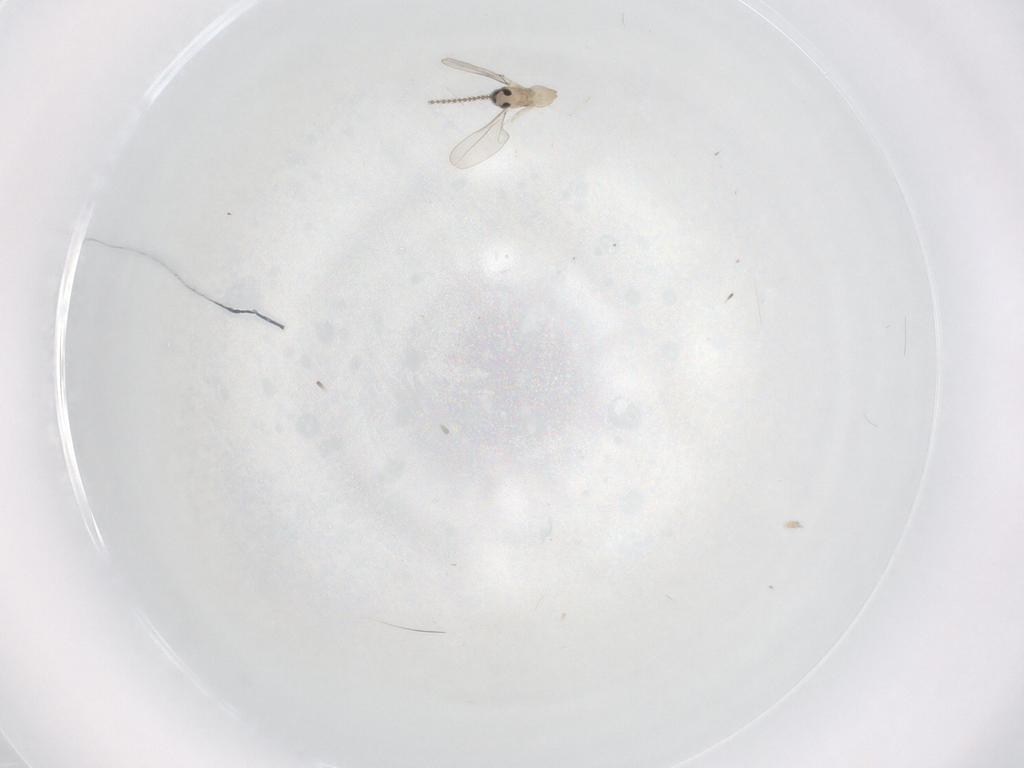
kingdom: Animalia
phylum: Arthropoda
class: Insecta
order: Diptera
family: Cecidomyiidae
